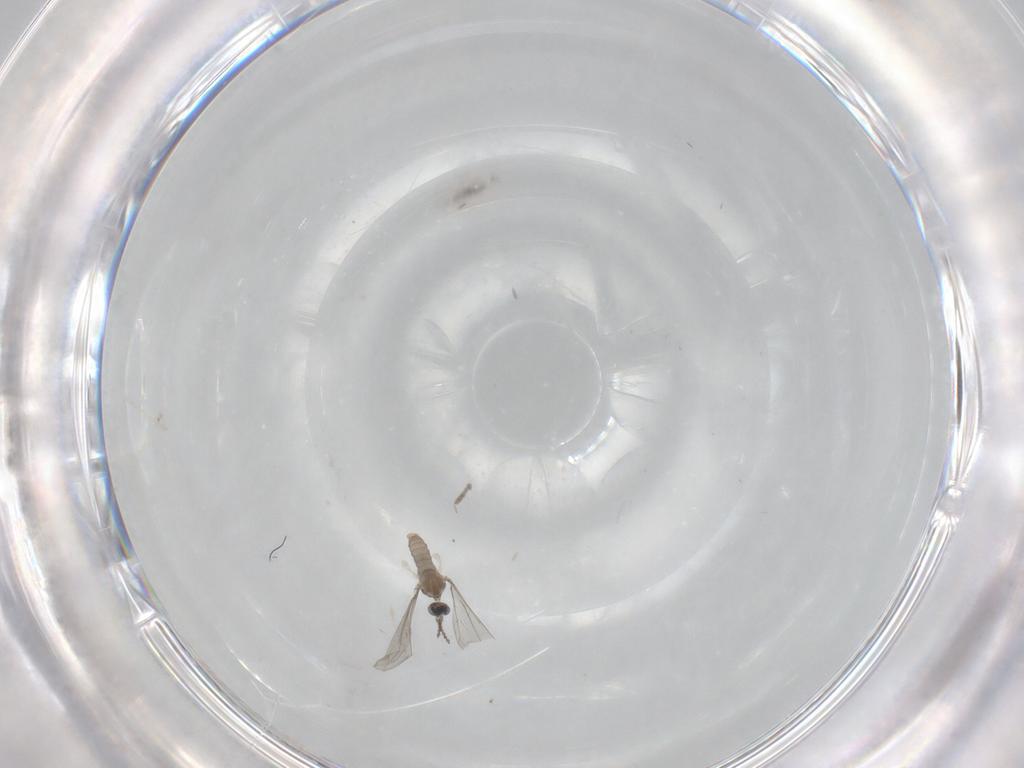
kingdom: Animalia
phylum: Arthropoda
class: Insecta
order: Diptera
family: Cecidomyiidae
